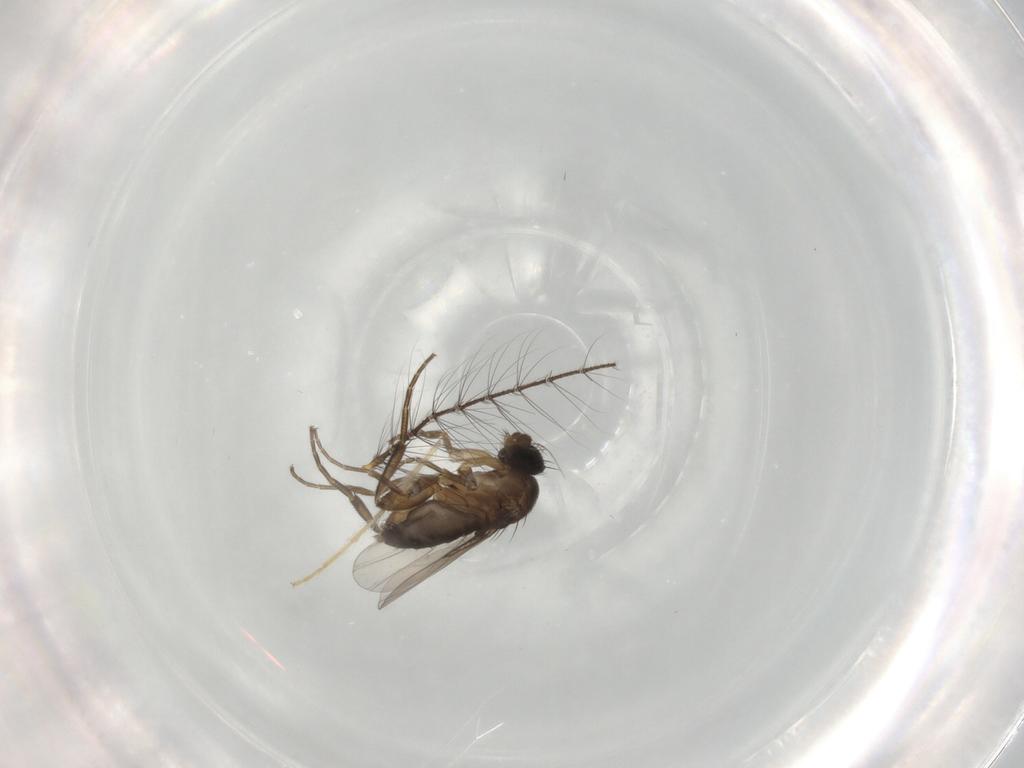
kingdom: Animalia
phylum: Arthropoda
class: Insecta
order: Diptera
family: Phoridae
